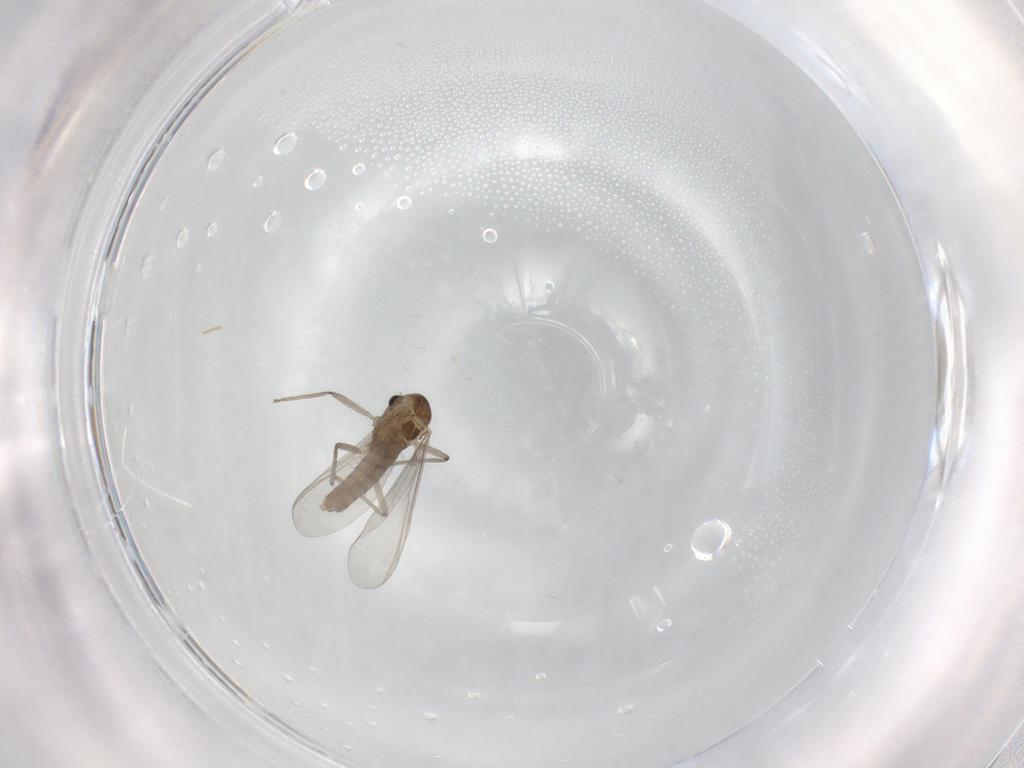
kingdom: Animalia
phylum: Arthropoda
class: Insecta
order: Diptera
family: Chironomidae
